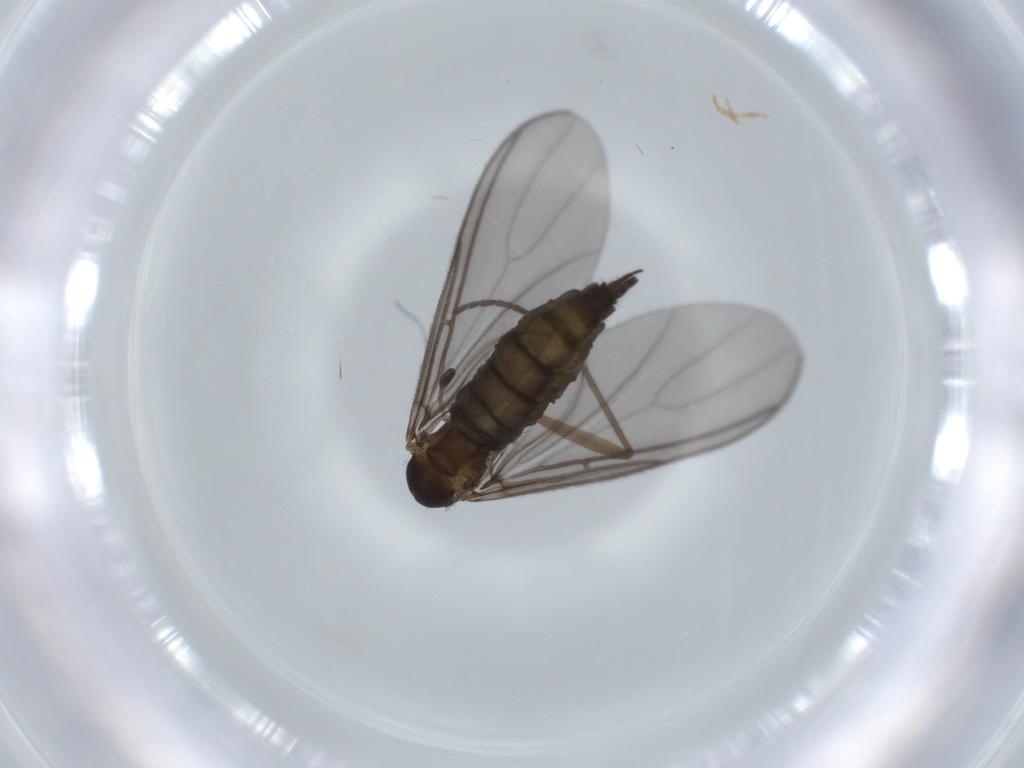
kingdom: Animalia
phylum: Arthropoda
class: Insecta
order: Diptera
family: Sciaridae
